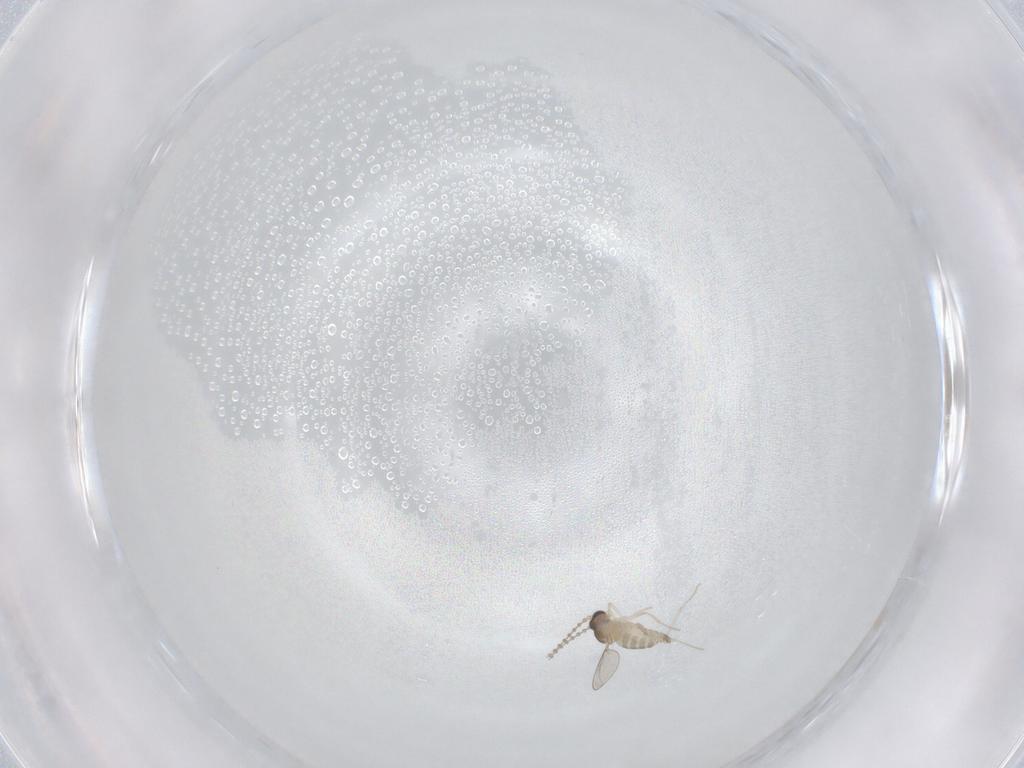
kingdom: Animalia
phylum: Arthropoda
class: Insecta
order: Diptera
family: Cecidomyiidae
